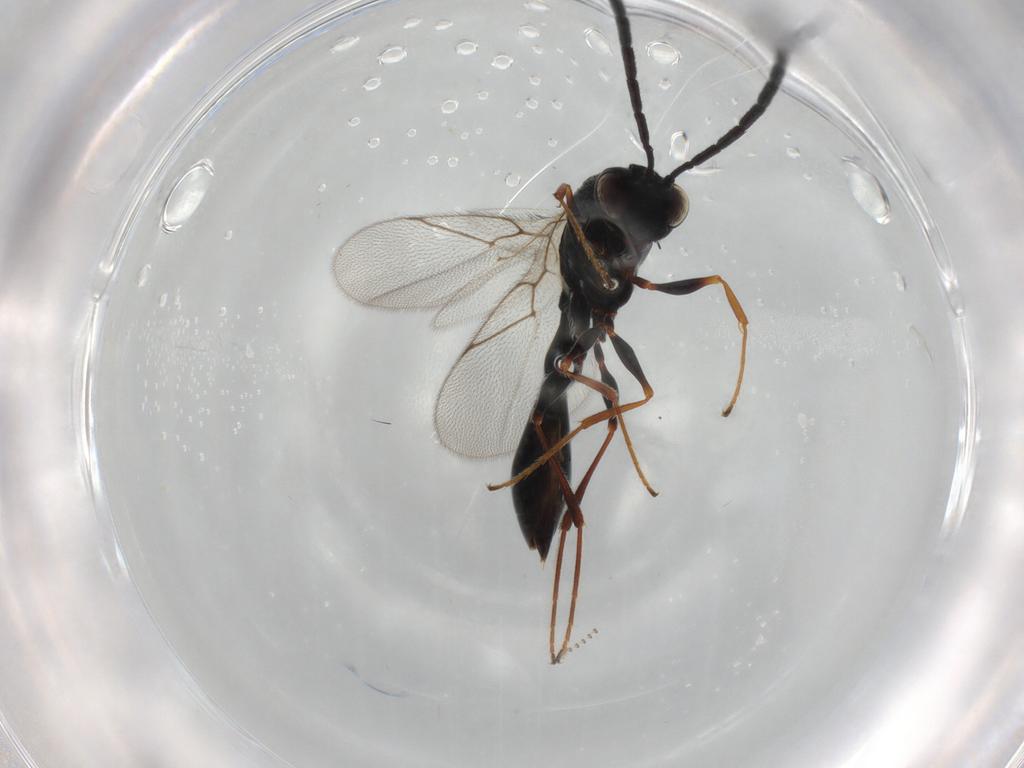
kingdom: Animalia
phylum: Arthropoda
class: Insecta
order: Hymenoptera
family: Figitidae
